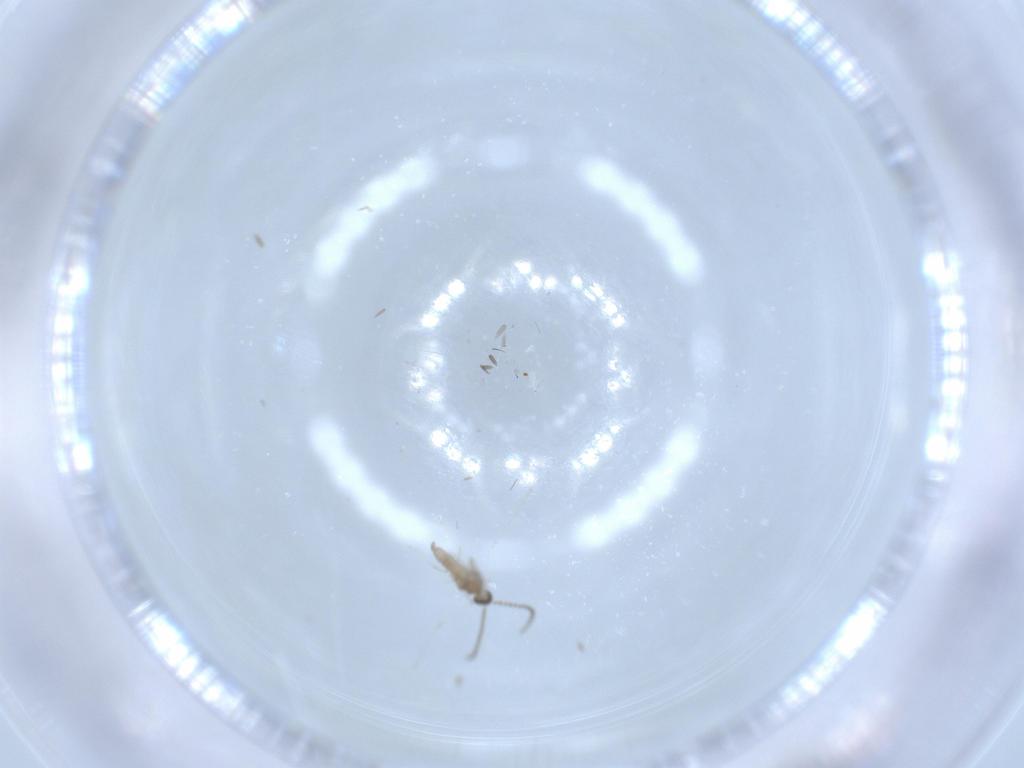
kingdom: Animalia
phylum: Arthropoda
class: Insecta
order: Diptera
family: Cecidomyiidae
